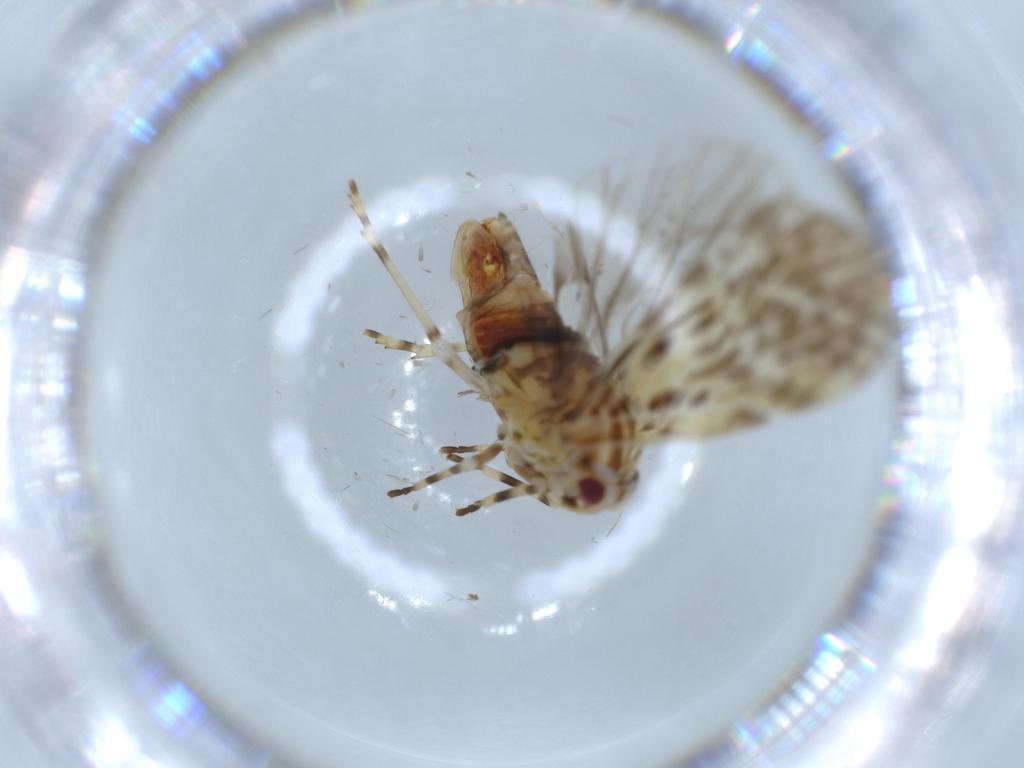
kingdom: Animalia
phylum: Arthropoda
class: Insecta
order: Hemiptera
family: Derbidae
